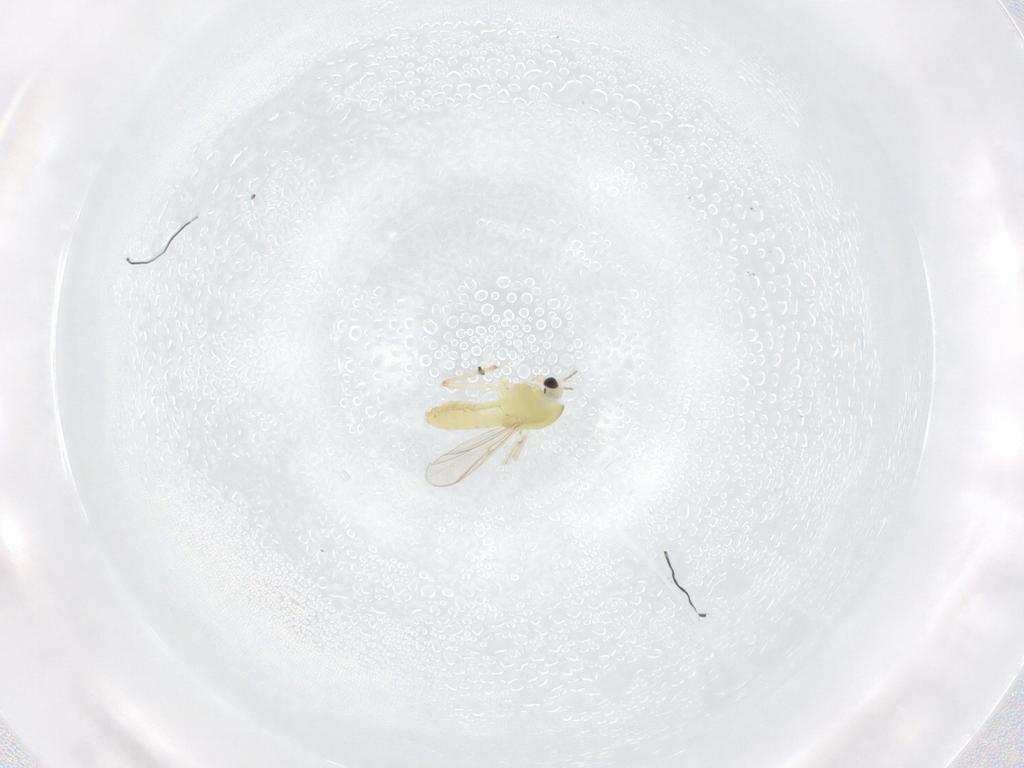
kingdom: Animalia
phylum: Arthropoda
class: Insecta
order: Diptera
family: Chironomidae
